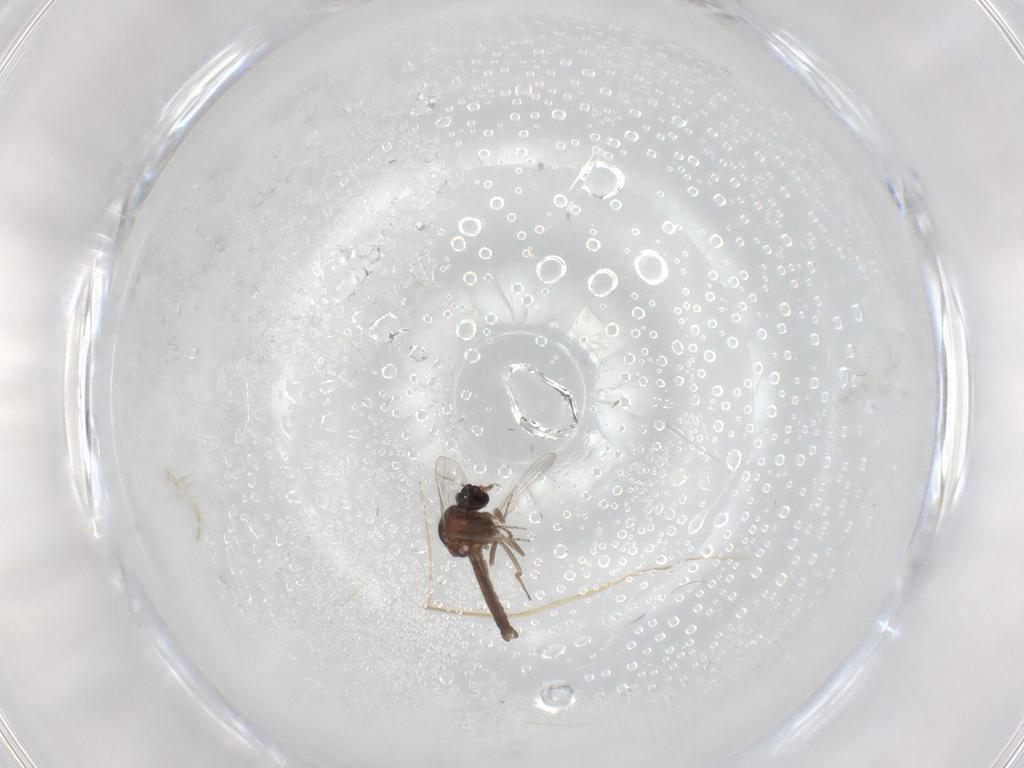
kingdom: Animalia
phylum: Arthropoda
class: Insecta
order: Diptera
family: Ceratopogonidae
